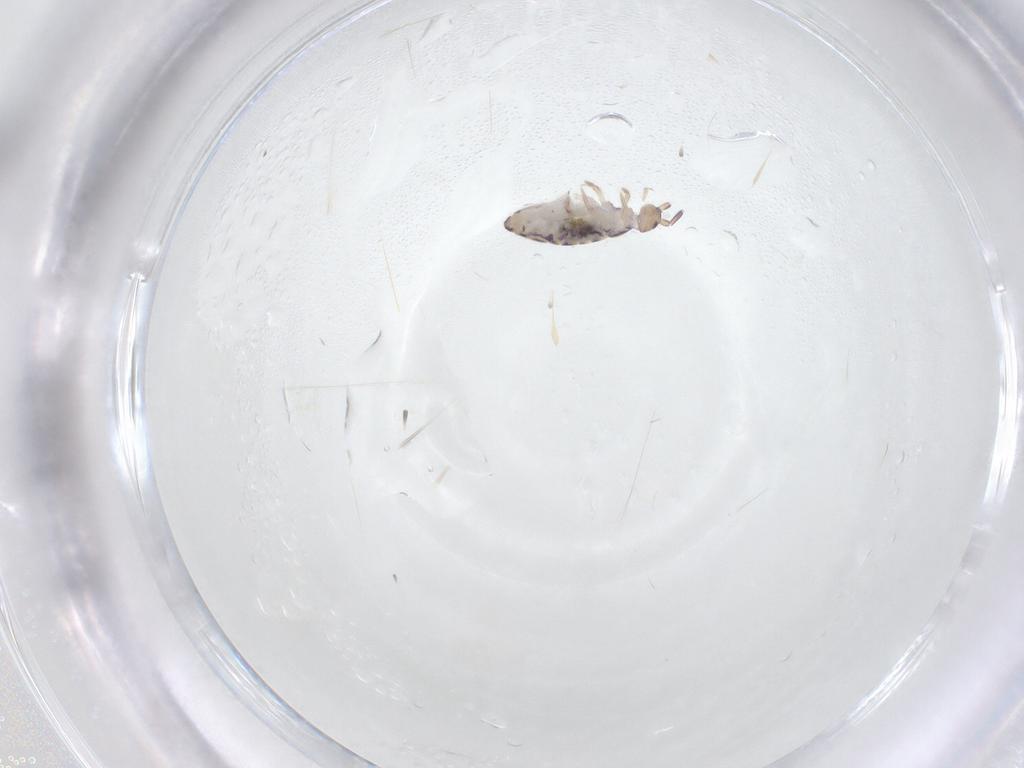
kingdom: Animalia
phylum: Arthropoda
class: Collembola
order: Entomobryomorpha
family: Entomobryidae
